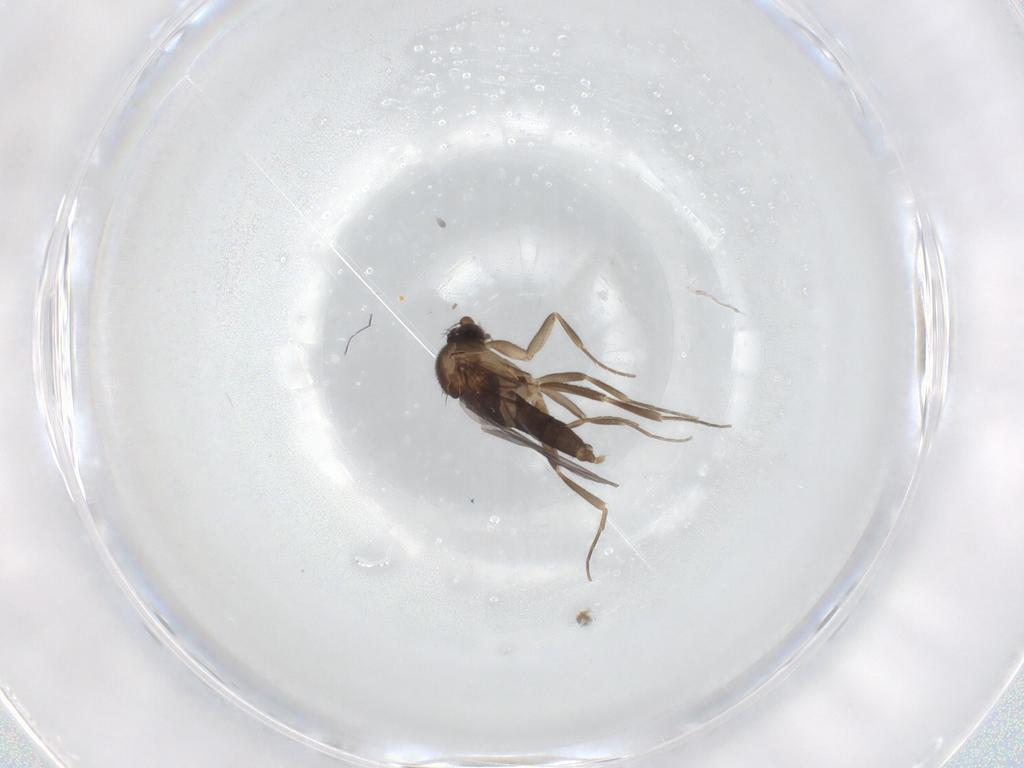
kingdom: Animalia
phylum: Arthropoda
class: Insecta
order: Diptera
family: Phoridae
